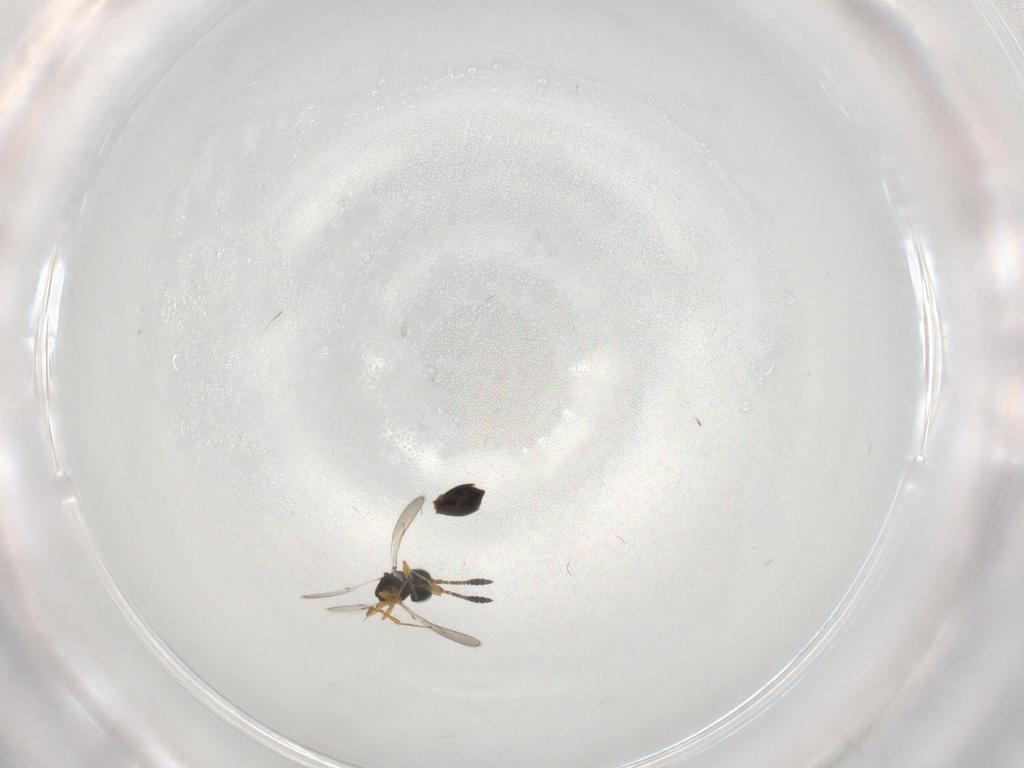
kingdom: Animalia
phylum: Arthropoda
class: Insecta
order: Hymenoptera
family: Scelionidae
